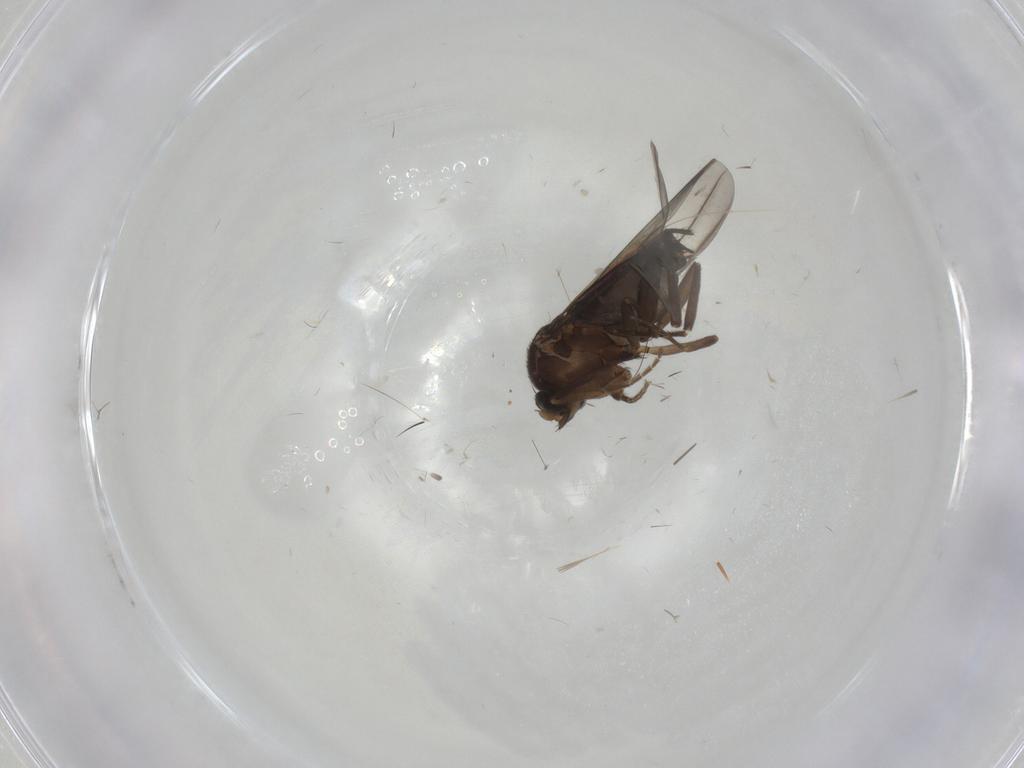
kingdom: Animalia
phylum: Arthropoda
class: Insecta
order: Diptera
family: Sciaridae
